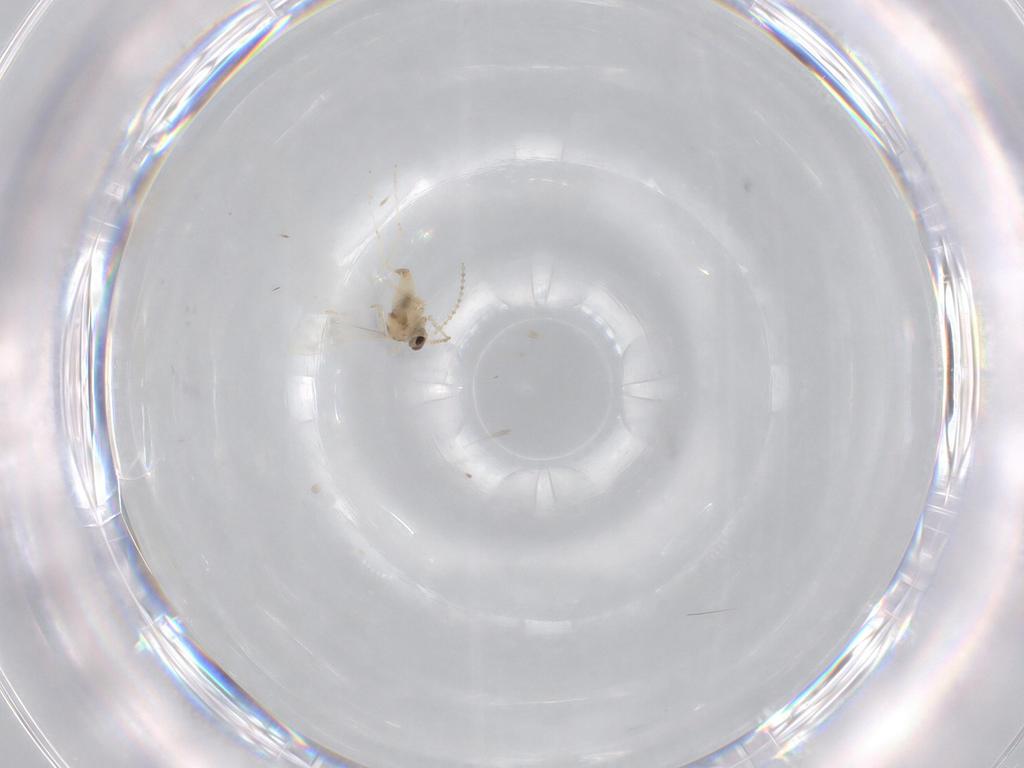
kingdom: Animalia
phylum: Arthropoda
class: Insecta
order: Diptera
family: Cecidomyiidae
